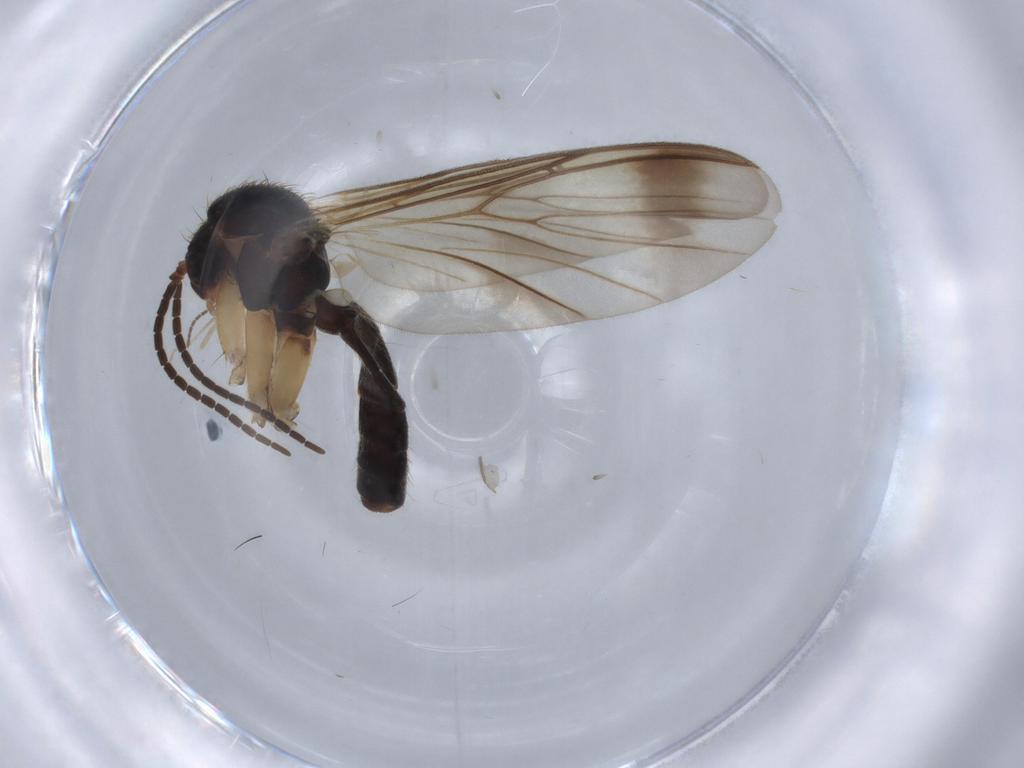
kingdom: Animalia
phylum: Arthropoda
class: Insecta
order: Diptera
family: Mycetophilidae
